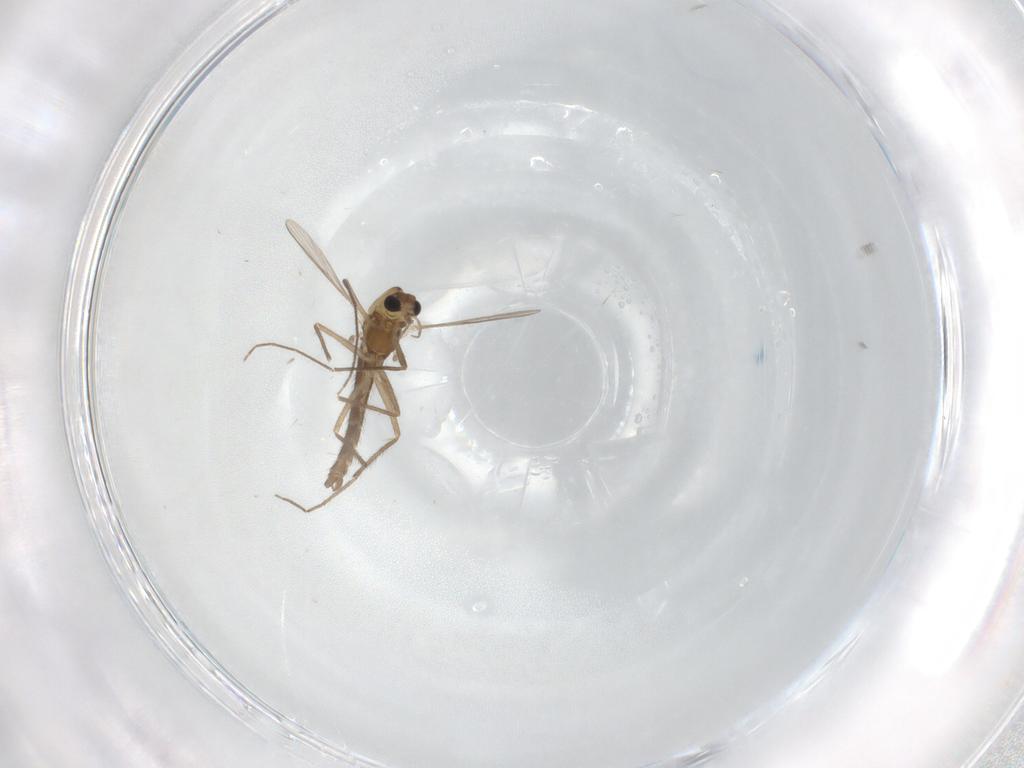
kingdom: Animalia
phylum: Arthropoda
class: Insecta
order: Diptera
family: Chironomidae
